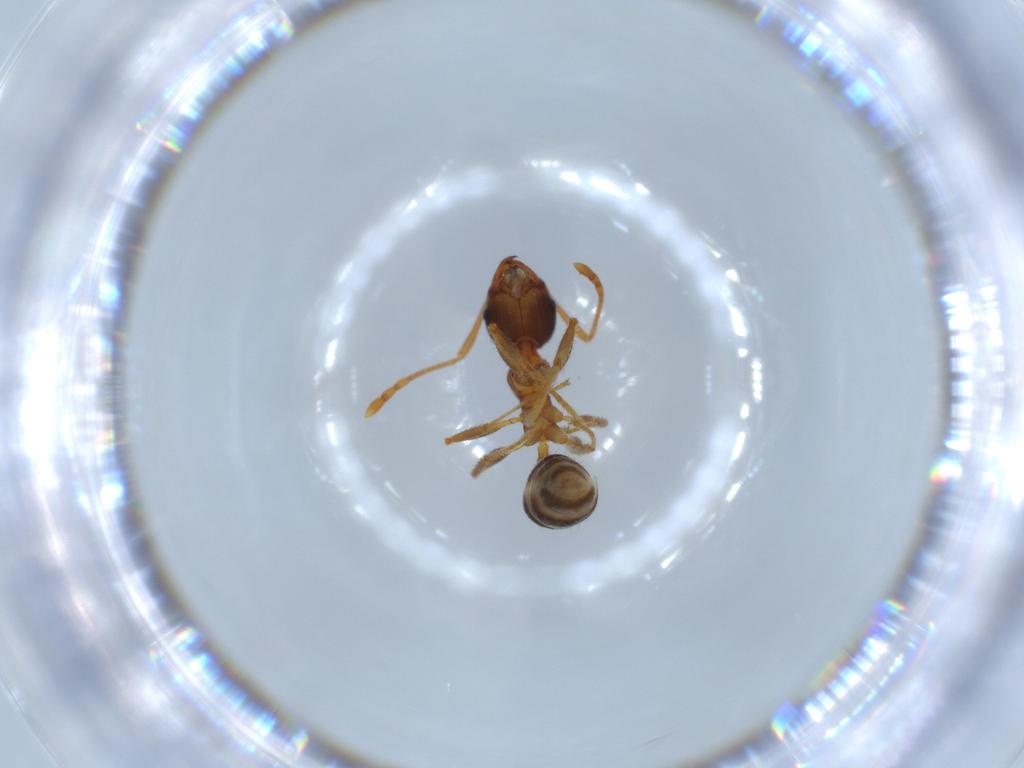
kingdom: Animalia
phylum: Arthropoda
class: Insecta
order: Hymenoptera
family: Formicidae
